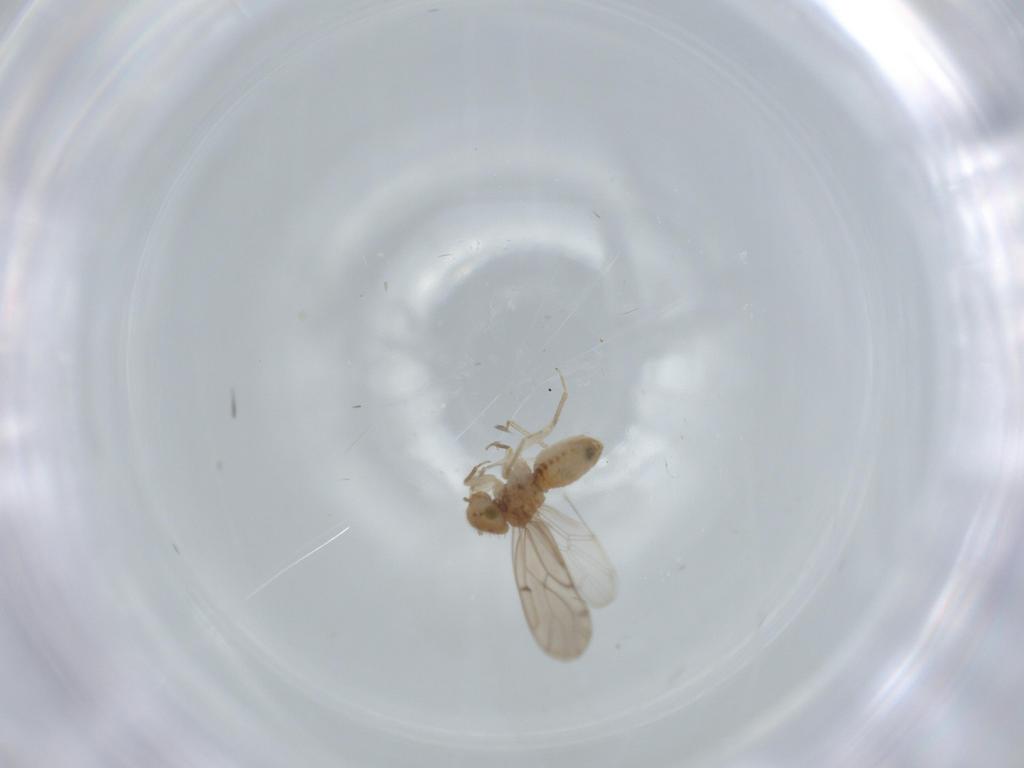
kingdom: Animalia
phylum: Arthropoda
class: Insecta
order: Psocodea
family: Ectopsocidae
